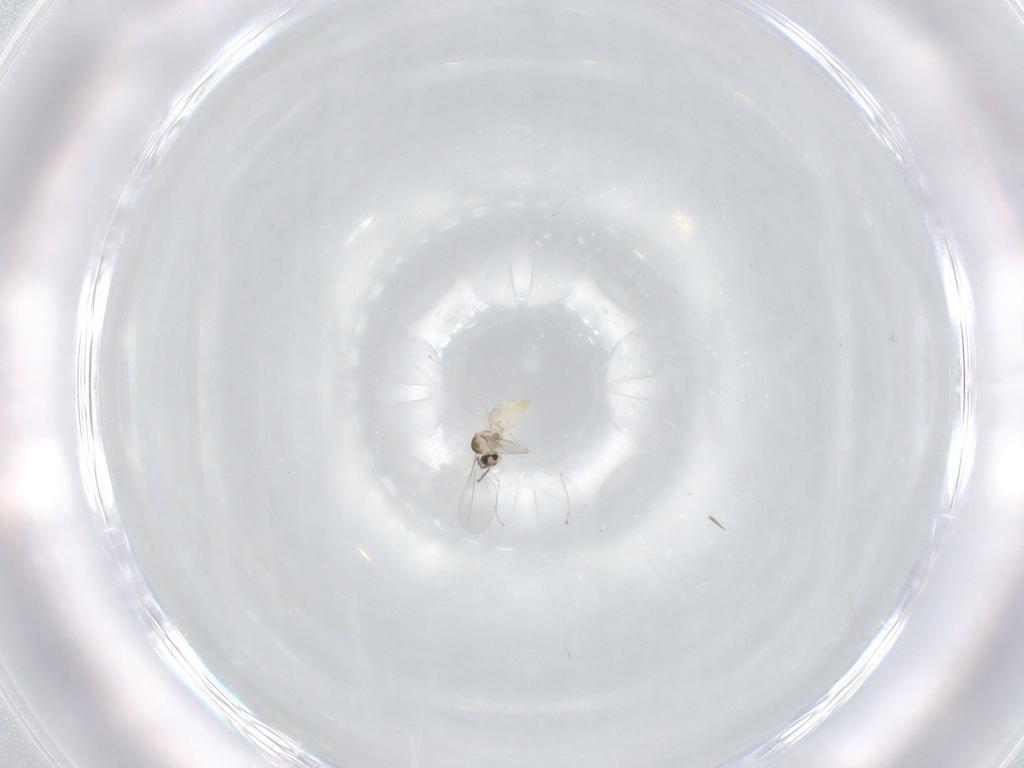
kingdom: Animalia
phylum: Arthropoda
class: Insecta
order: Diptera
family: Cecidomyiidae
